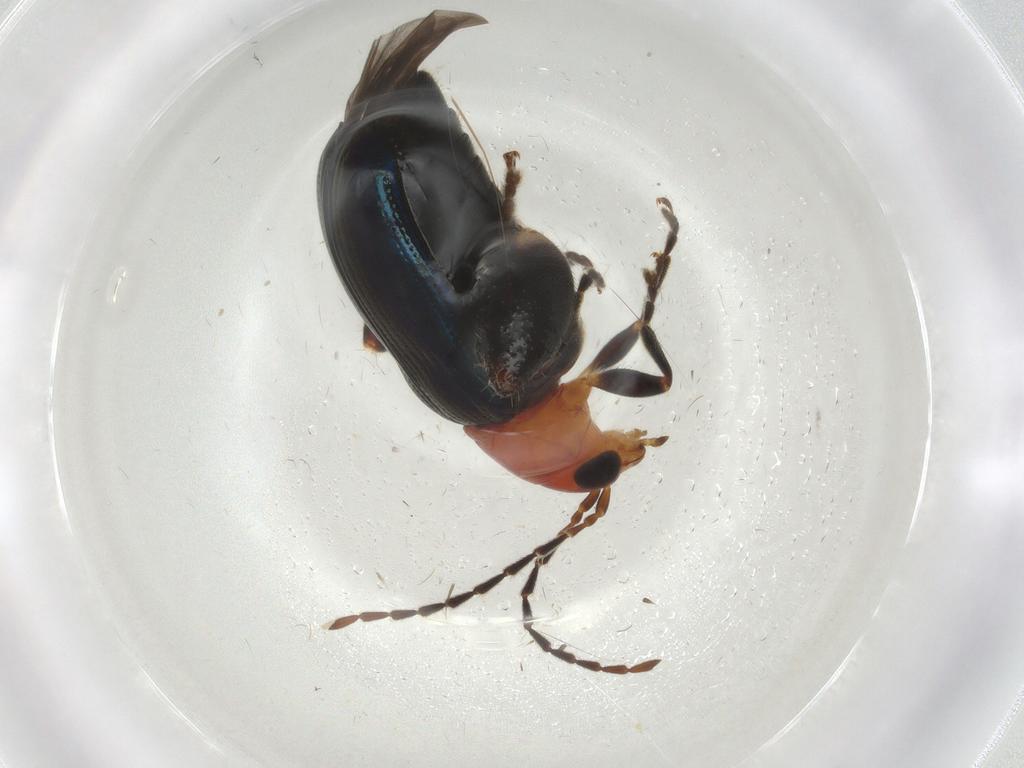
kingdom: Animalia
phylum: Arthropoda
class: Insecta
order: Coleoptera
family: Chrysomelidae
